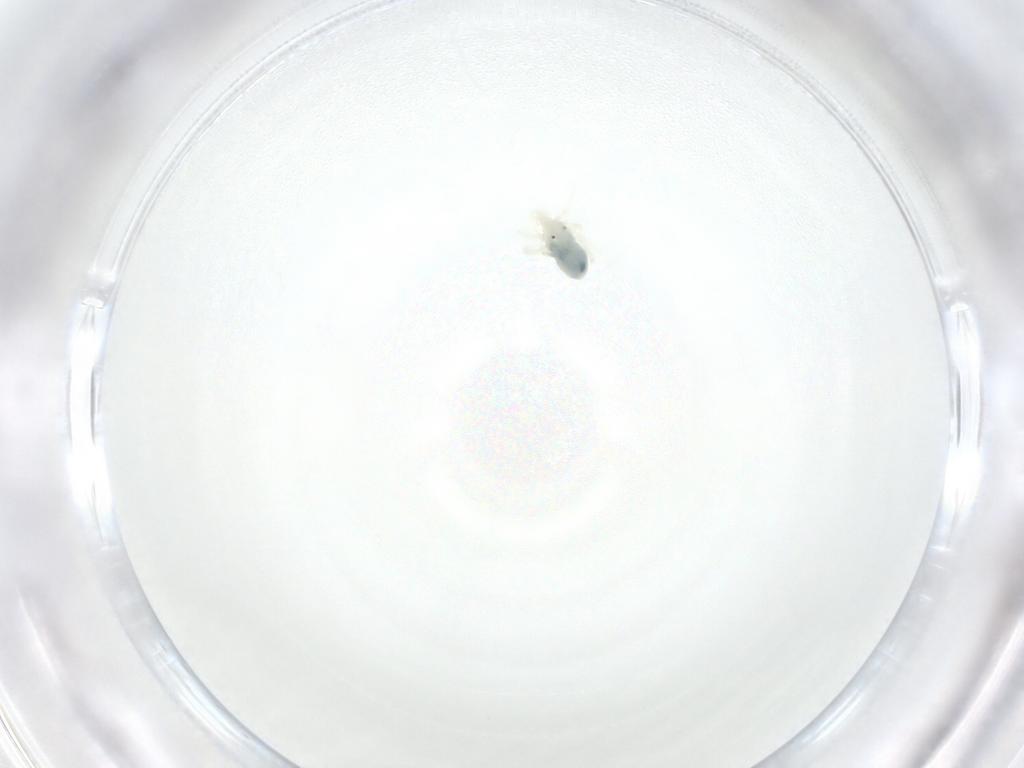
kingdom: Animalia
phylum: Arthropoda
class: Arachnida
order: Trombidiformes
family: Anystidae
